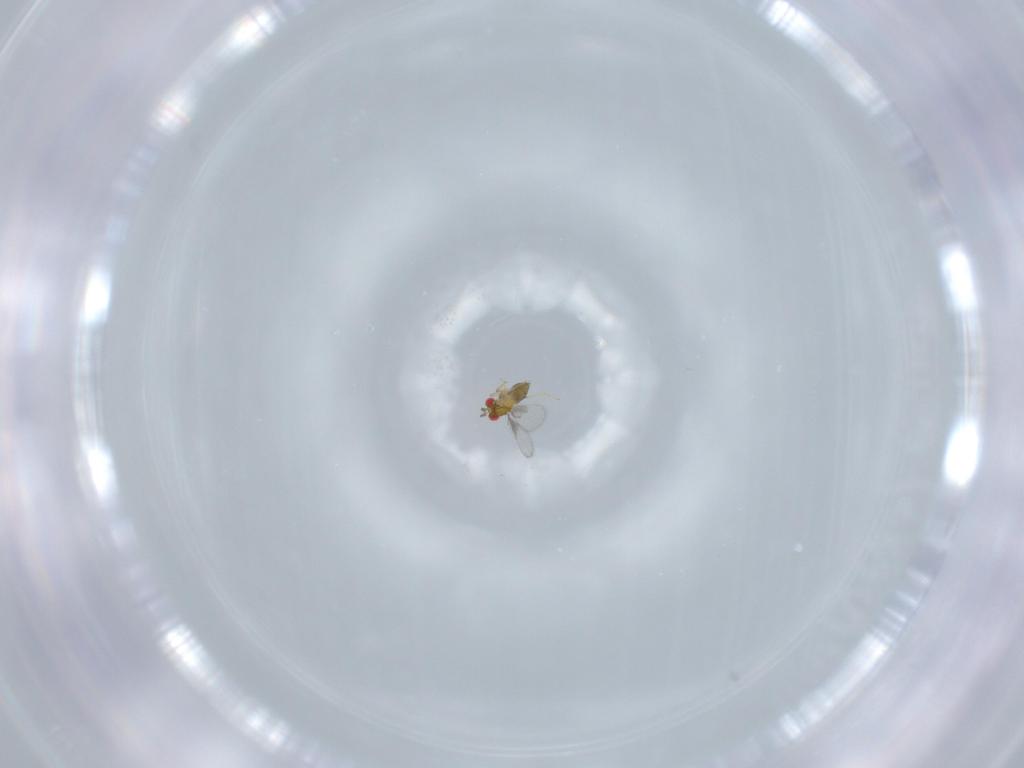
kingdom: Animalia
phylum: Arthropoda
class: Insecta
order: Hymenoptera
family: Trichogrammatidae
